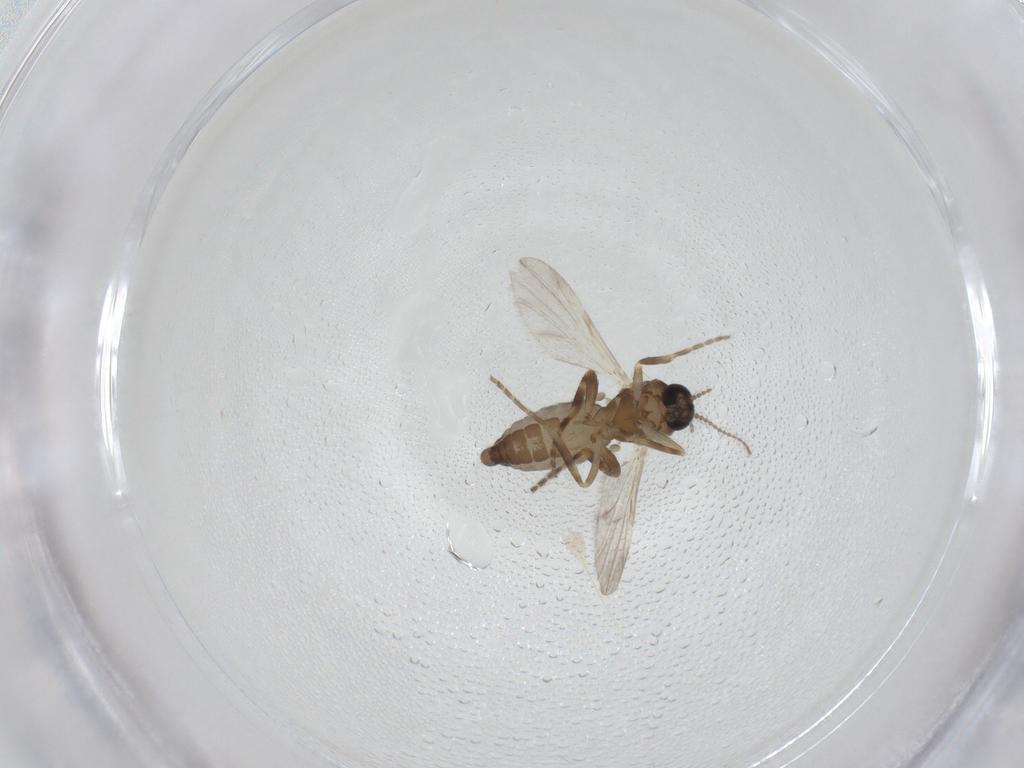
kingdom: Animalia
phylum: Arthropoda
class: Insecta
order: Diptera
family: Ceratopogonidae
